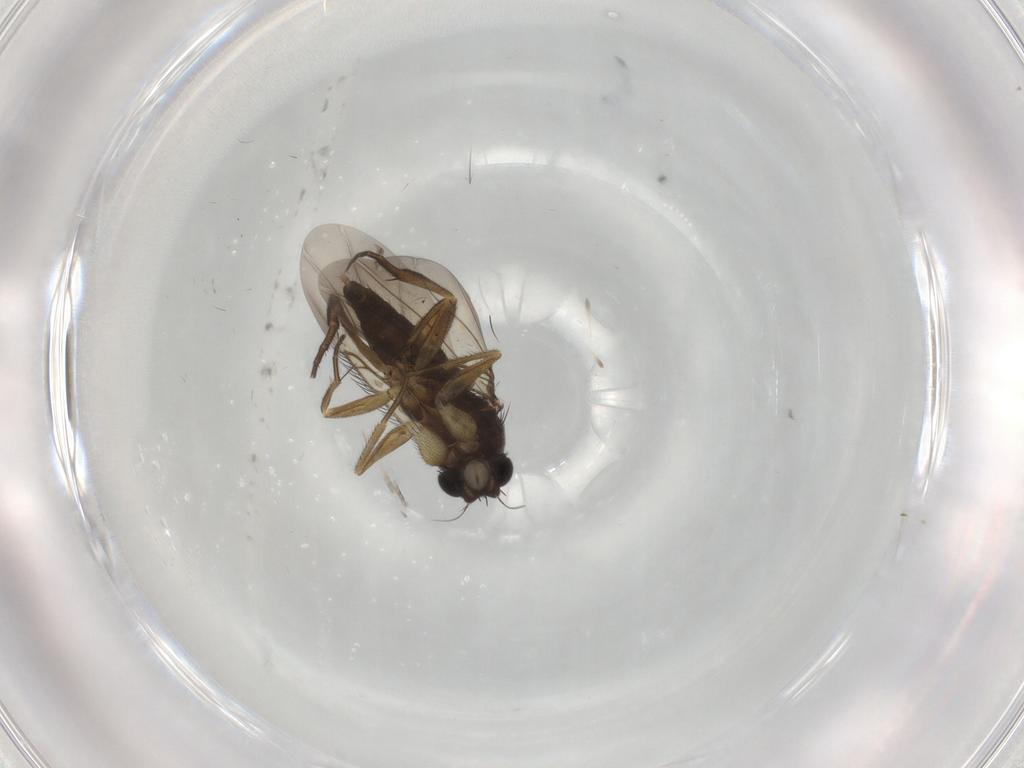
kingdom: Animalia
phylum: Arthropoda
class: Insecta
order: Diptera
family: Phoridae
